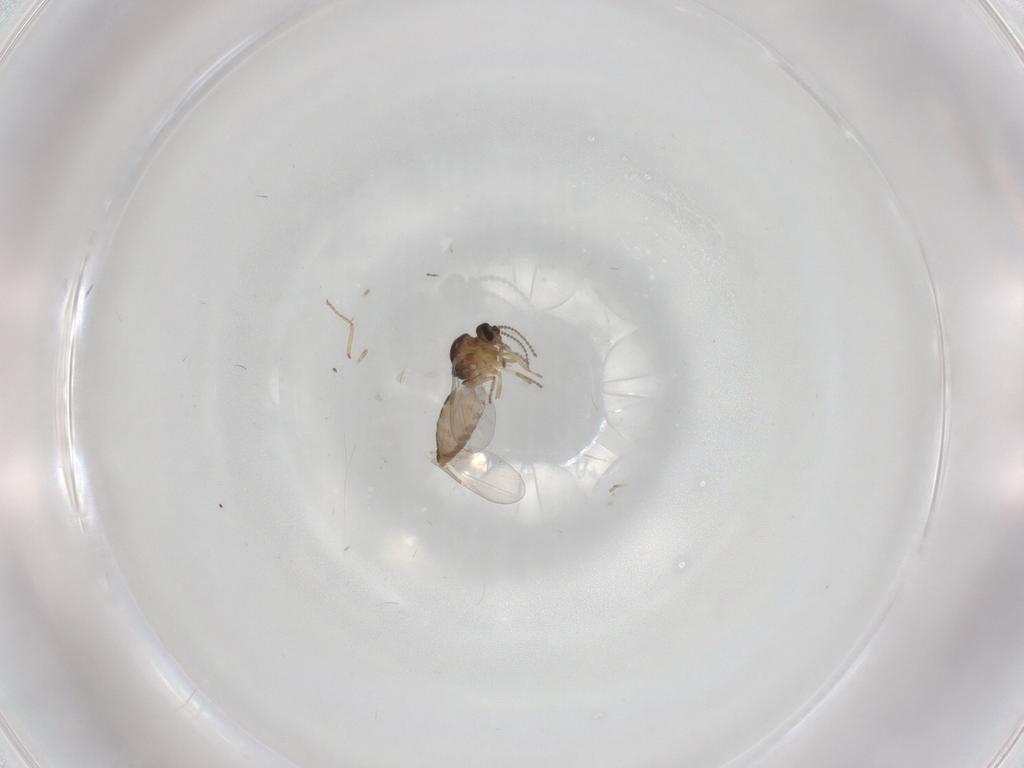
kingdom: Animalia
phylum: Arthropoda
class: Insecta
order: Diptera
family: Ceratopogonidae
